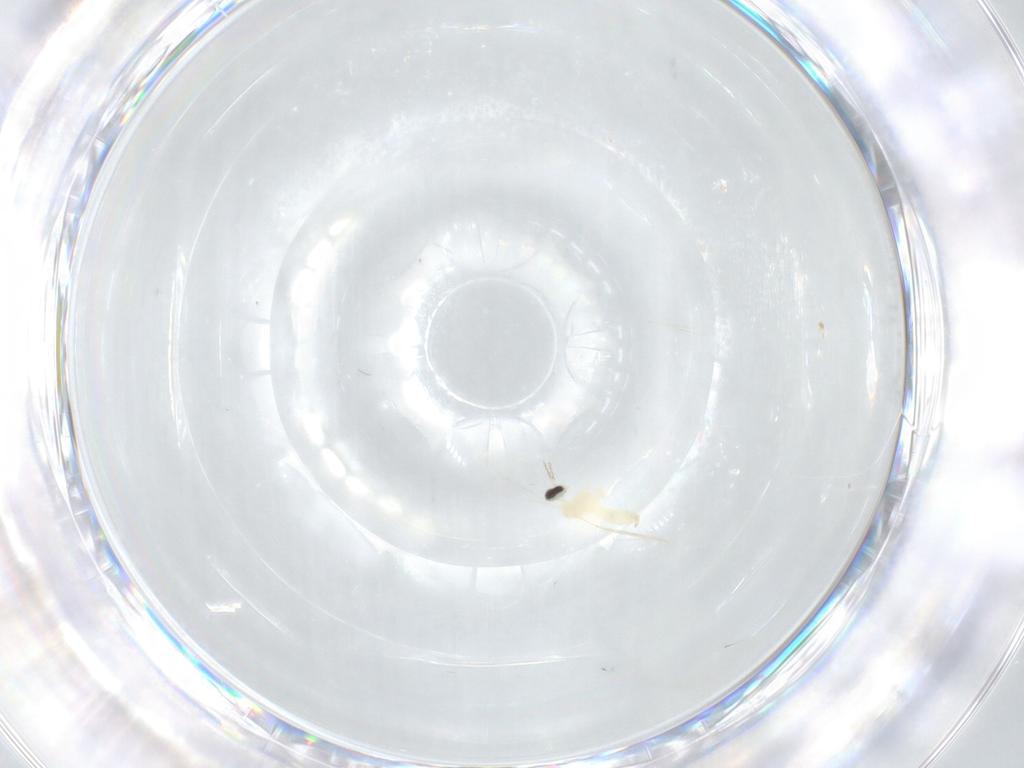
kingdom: Animalia
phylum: Arthropoda
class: Insecta
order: Diptera
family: Cecidomyiidae
